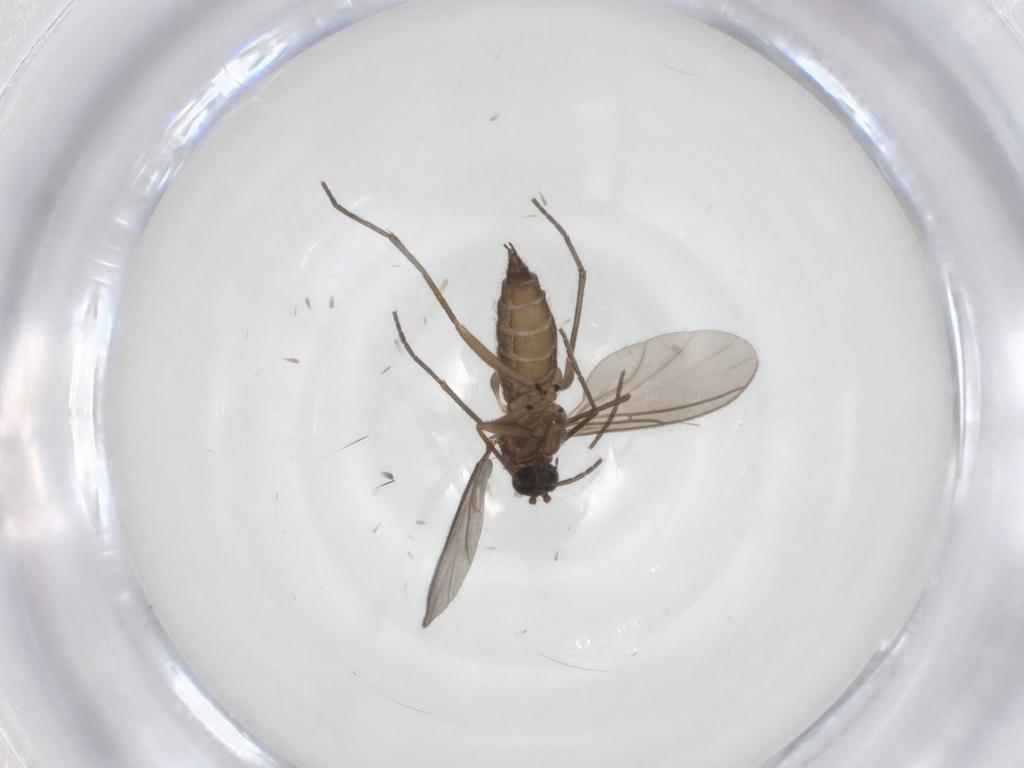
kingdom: Animalia
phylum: Arthropoda
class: Insecta
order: Diptera
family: Sciaridae
